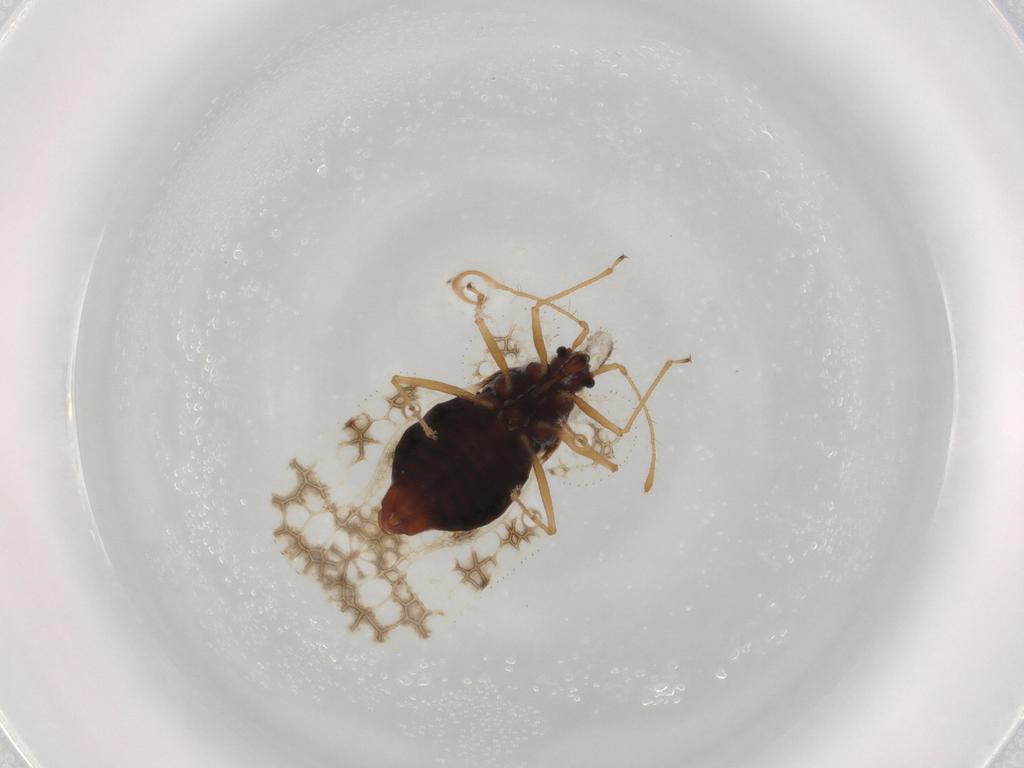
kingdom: Animalia
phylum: Arthropoda
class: Insecta
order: Hemiptera
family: Tingidae
